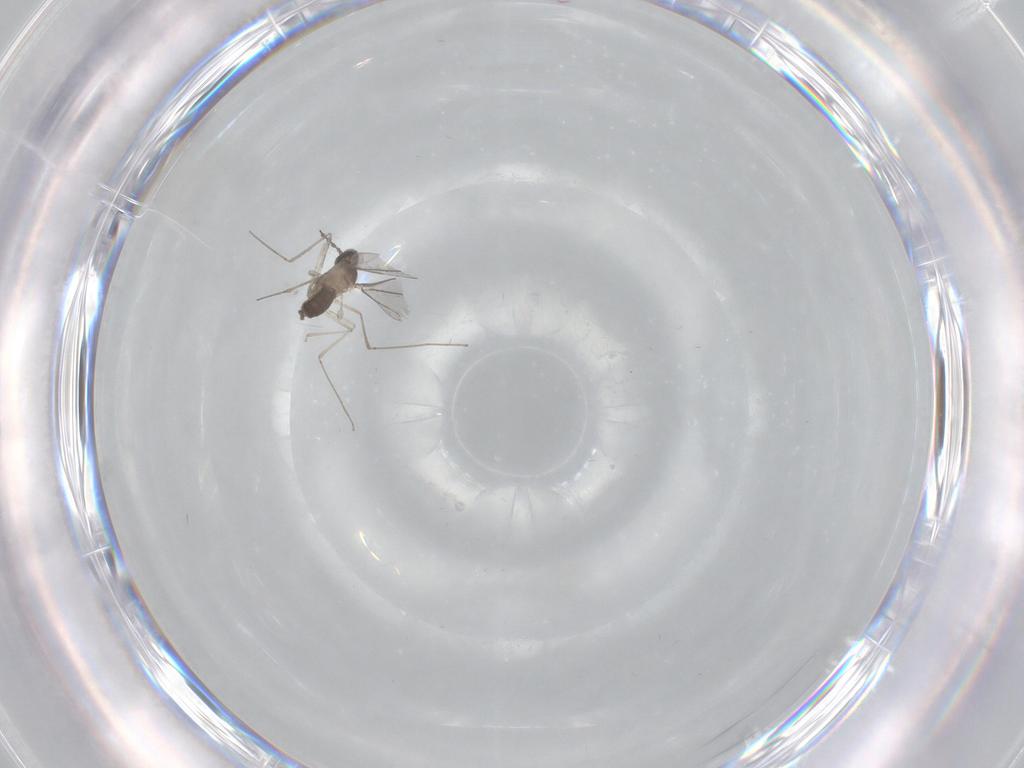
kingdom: Animalia
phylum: Arthropoda
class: Insecta
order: Diptera
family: Cecidomyiidae
